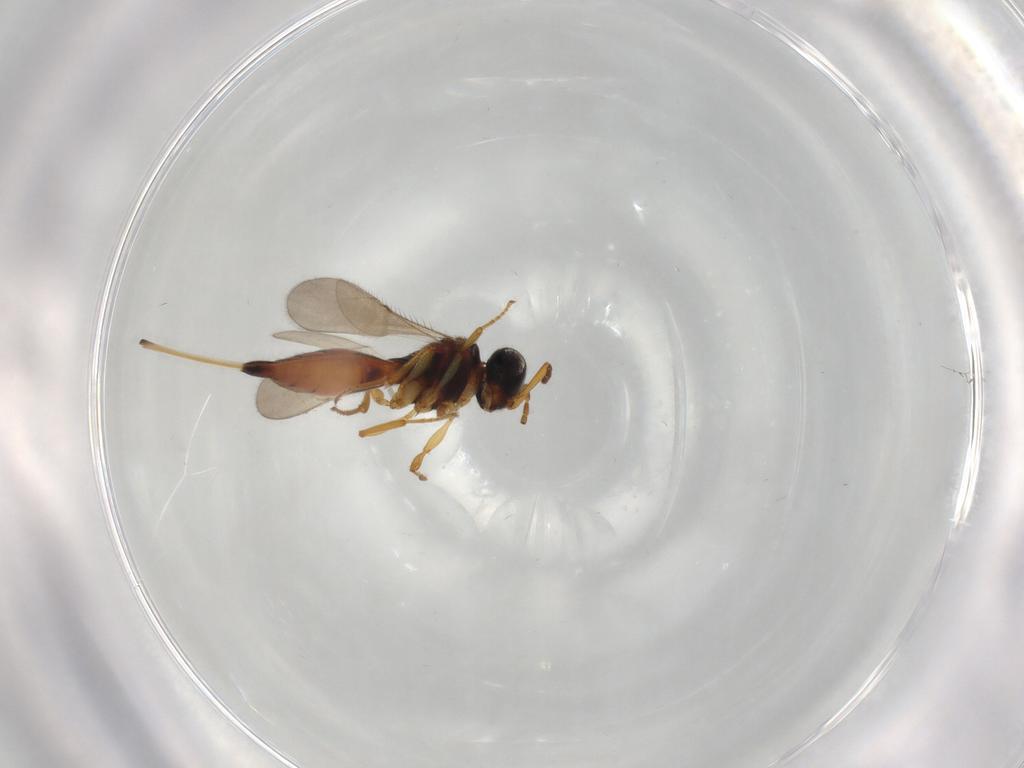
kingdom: Animalia
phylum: Arthropoda
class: Insecta
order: Hymenoptera
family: Scelionidae
